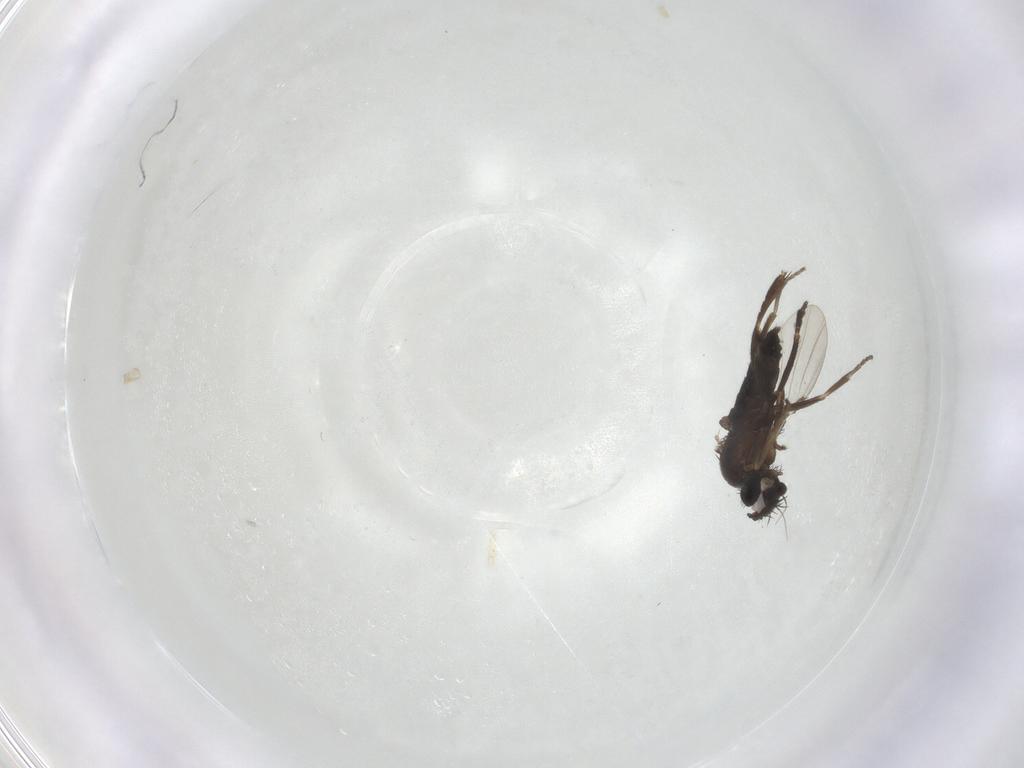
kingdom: Animalia
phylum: Arthropoda
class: Insecta
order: Diptera
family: Phoridae
